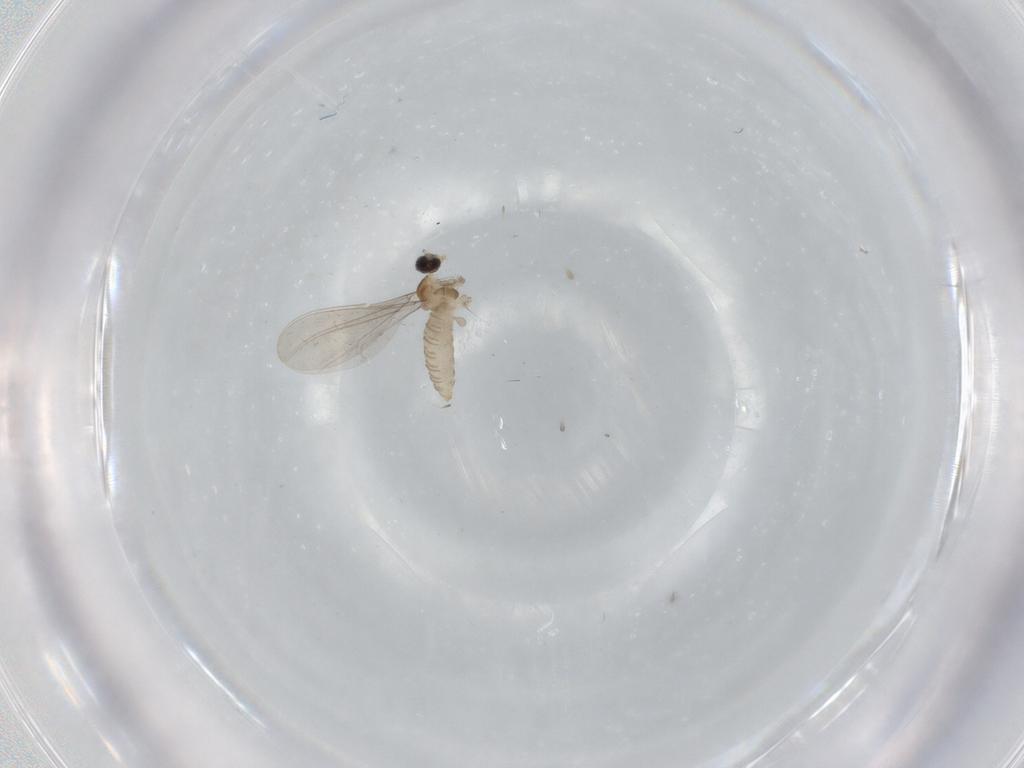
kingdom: Animalia
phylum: Arthropoda
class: Insecta
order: Diptera
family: Cecidomyiidae
